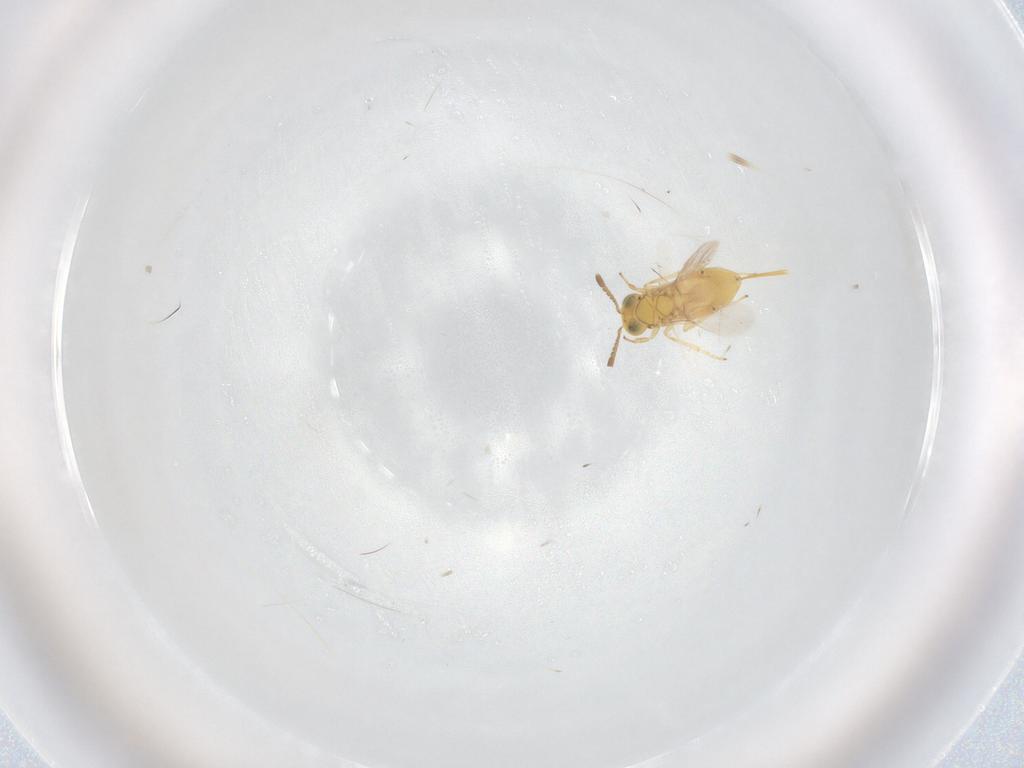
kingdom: Animalia
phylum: Arthropoda
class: Insecta
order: Hymenoptera
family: Encyrtidae
